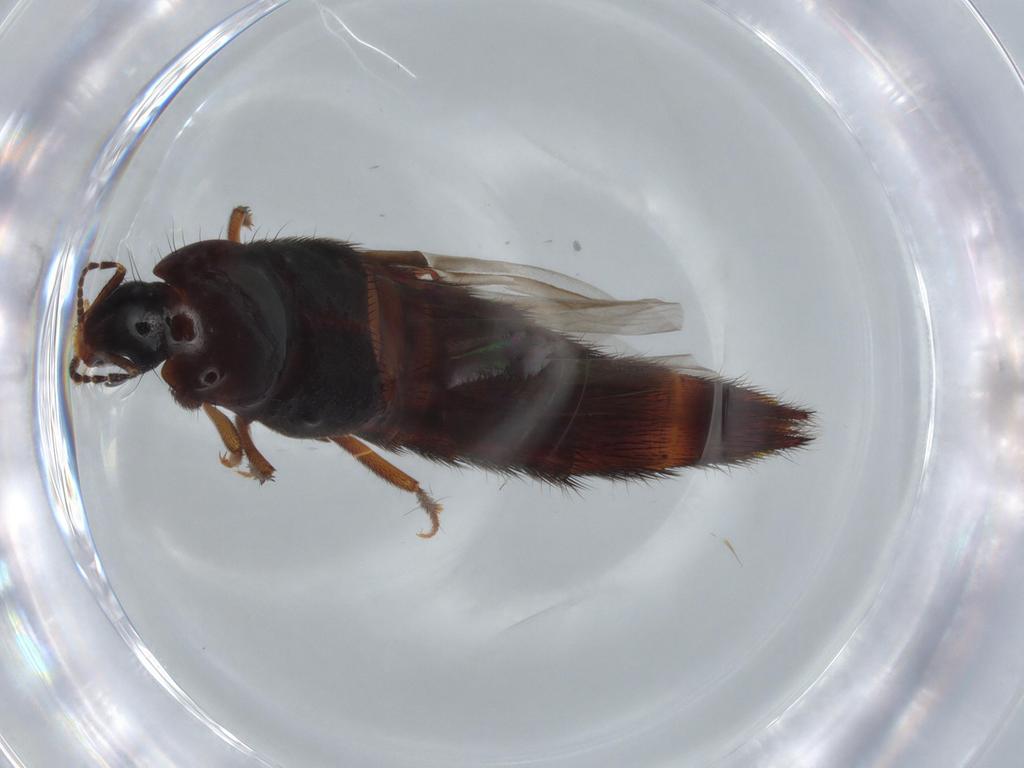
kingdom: Animalia
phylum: Arthropoda
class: Insecta
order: Coleoptera
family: Staphylinidae
